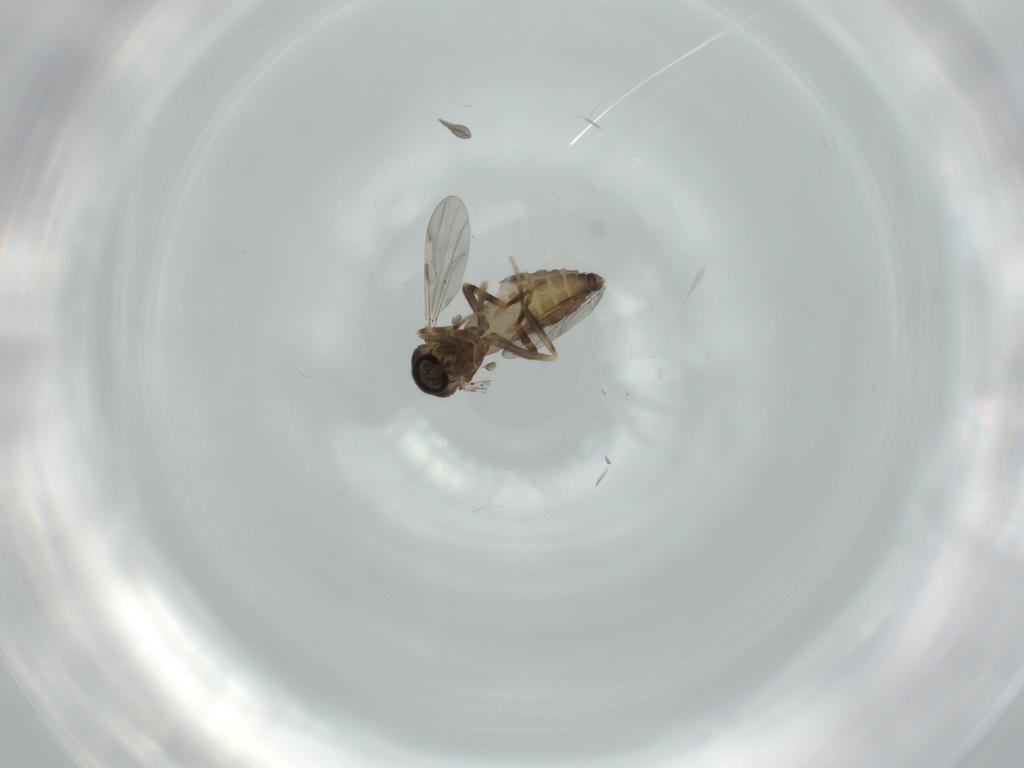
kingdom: Animalia
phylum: Arthropoda
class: Insecta
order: Diptera
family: Ceratopogonidae
